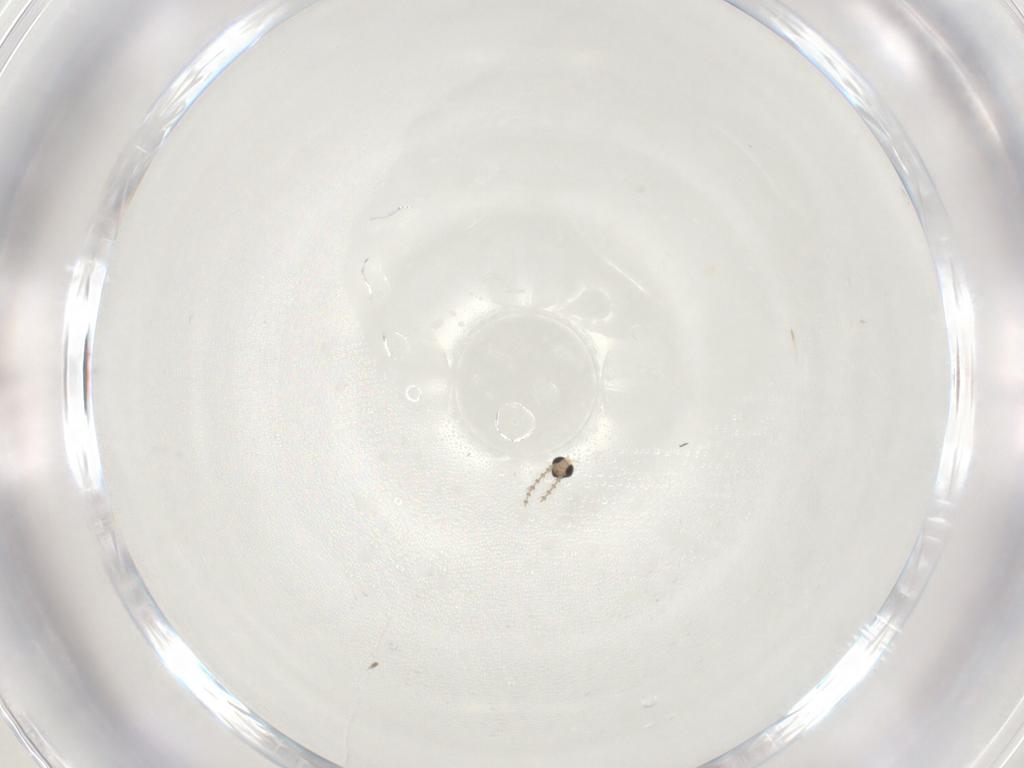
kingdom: Animalia
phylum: Arthropoda
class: Insecta
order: Diptera
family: Cecidomyiidae
